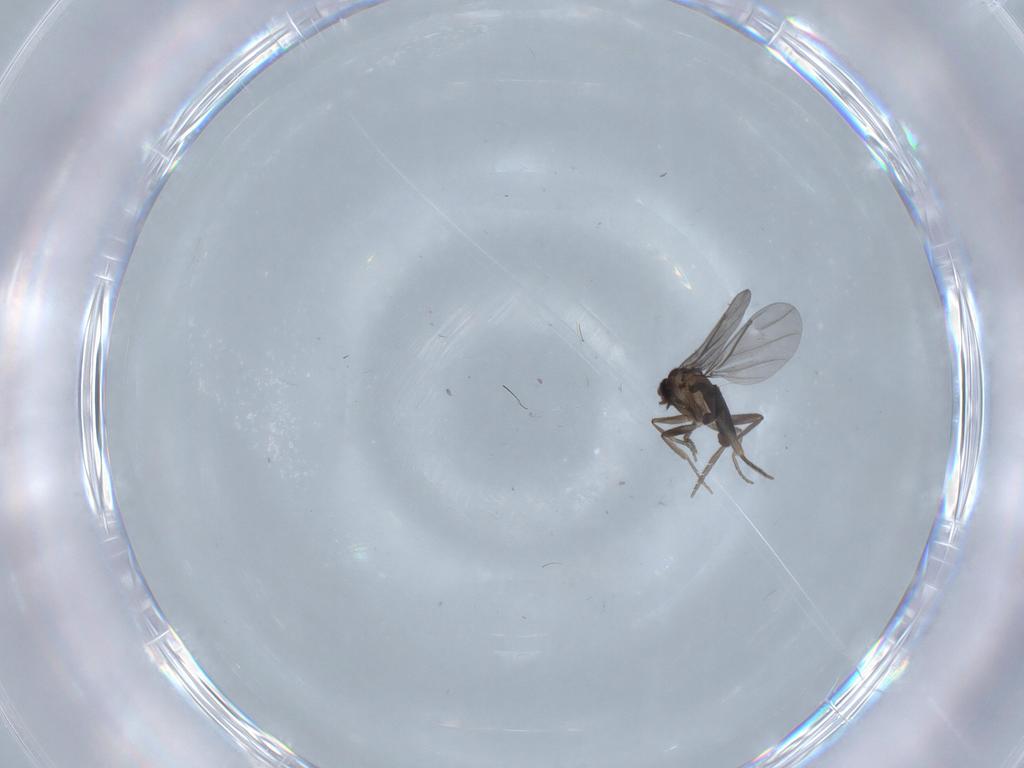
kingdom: Animalia
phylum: Arthropoda
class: Insecta
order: Diptera
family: Phoridae
